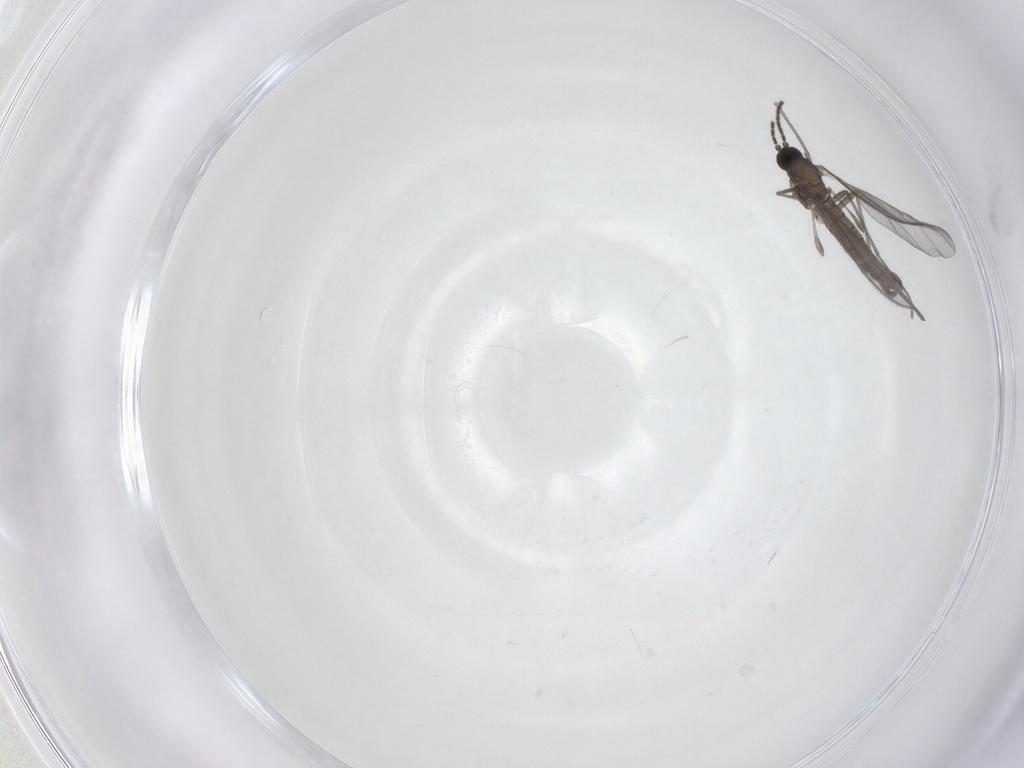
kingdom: Animalia
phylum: Arthropoda
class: Insecta
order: Diptera
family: Sciaridae
